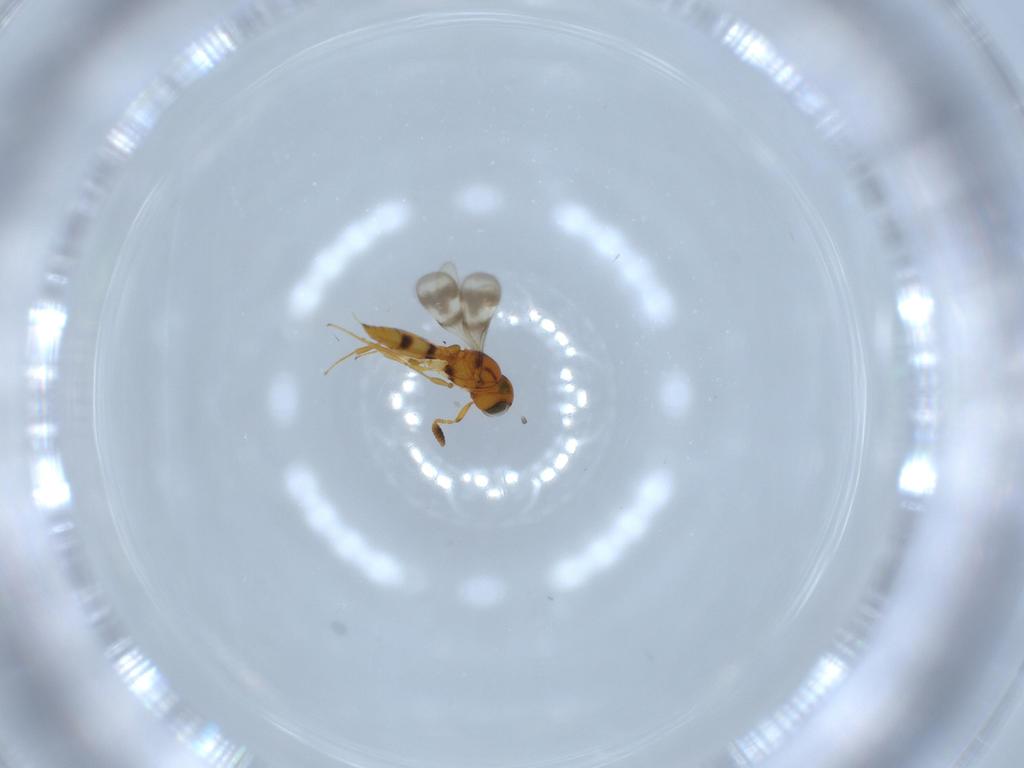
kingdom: Animalia
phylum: Arthropoda
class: Insecta
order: Hymenoptera
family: Scelionidae
